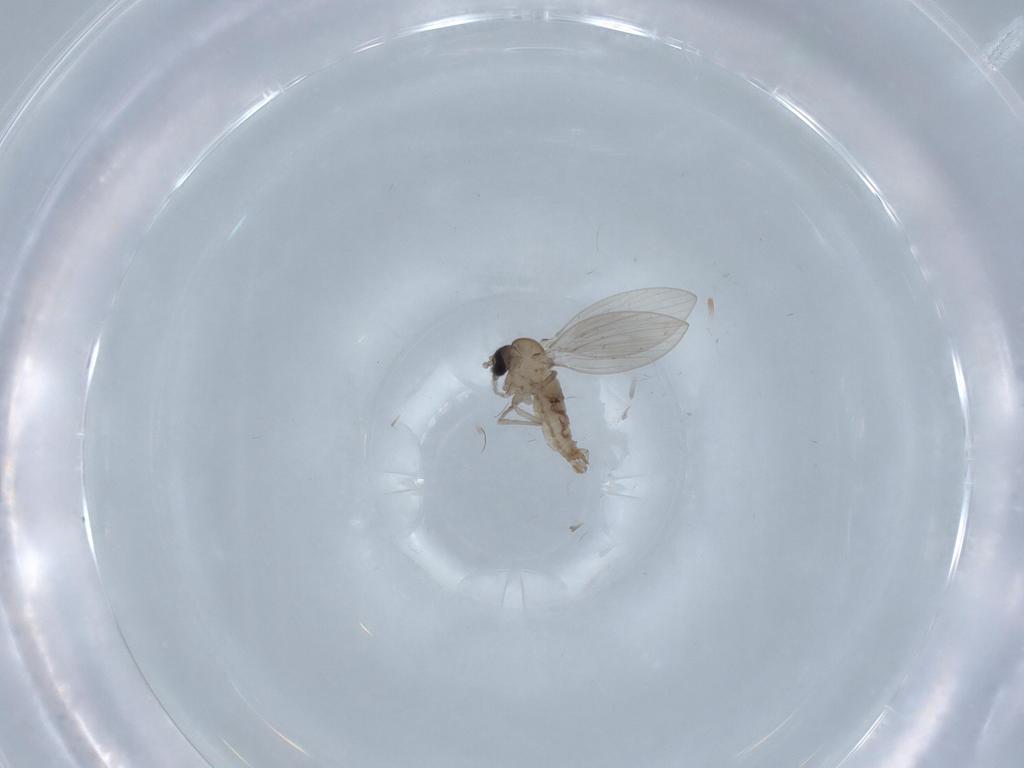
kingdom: Animalia
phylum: Arthropoda
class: Insecta
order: Diptera
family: Psychodidae
